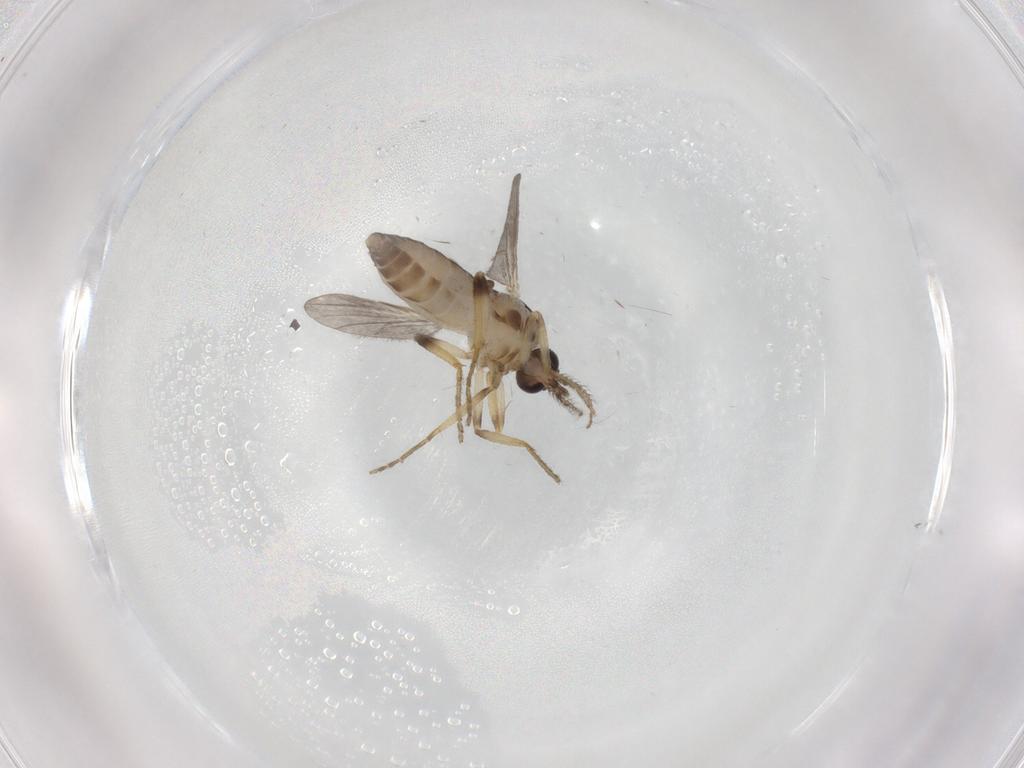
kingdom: Animalia
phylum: Arthropoda
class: Insecta
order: Diptera
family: Ceratopogonidae
